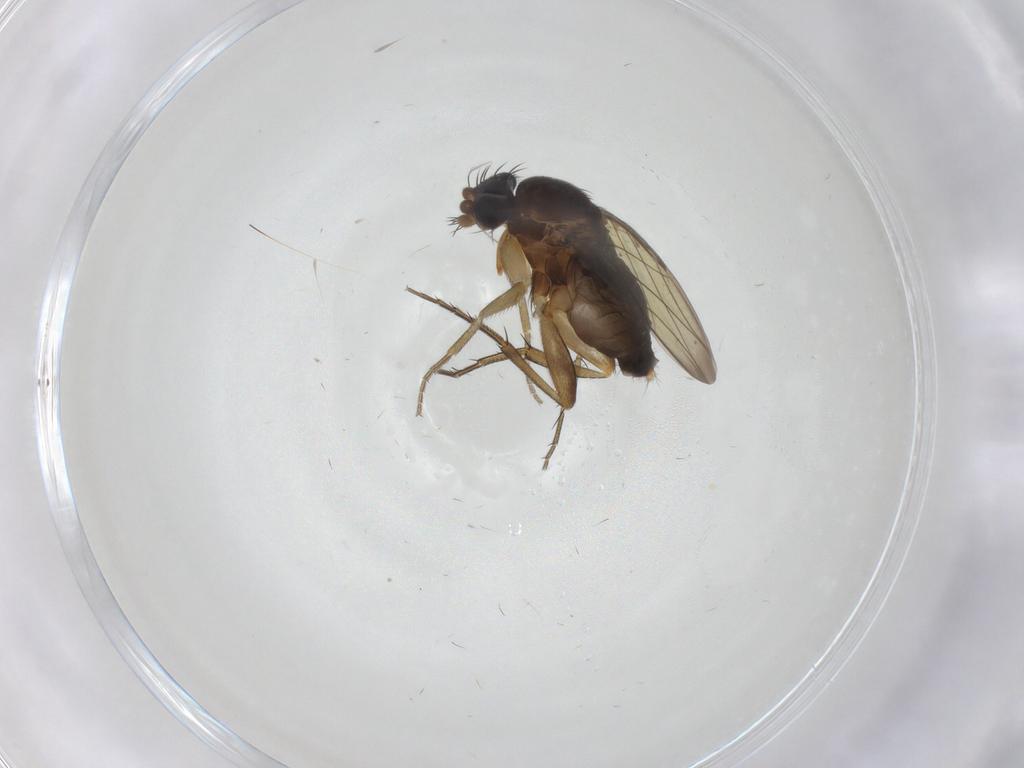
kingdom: Animalia
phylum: Arthropoda
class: Insecta
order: Diptera
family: Phoridae
